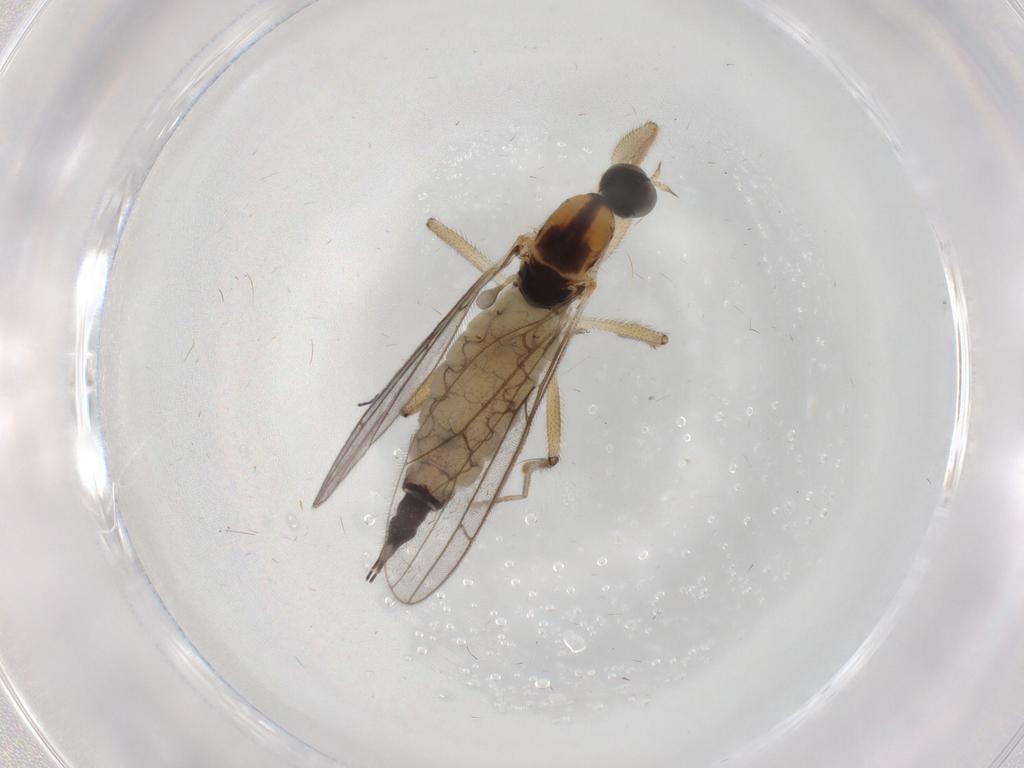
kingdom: Animalia
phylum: Arthropoda
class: Insecta
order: Diptera
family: Empididae
